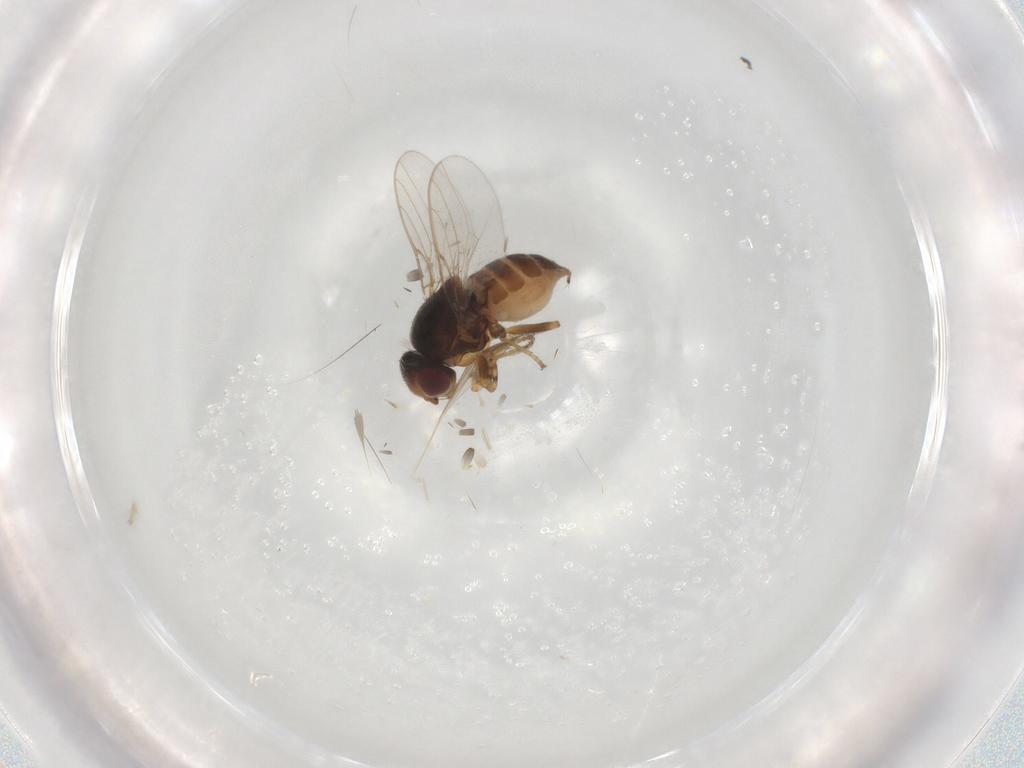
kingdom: Animalia
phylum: Arthropoda
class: Insecta
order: Diptera
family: Chloropidae
